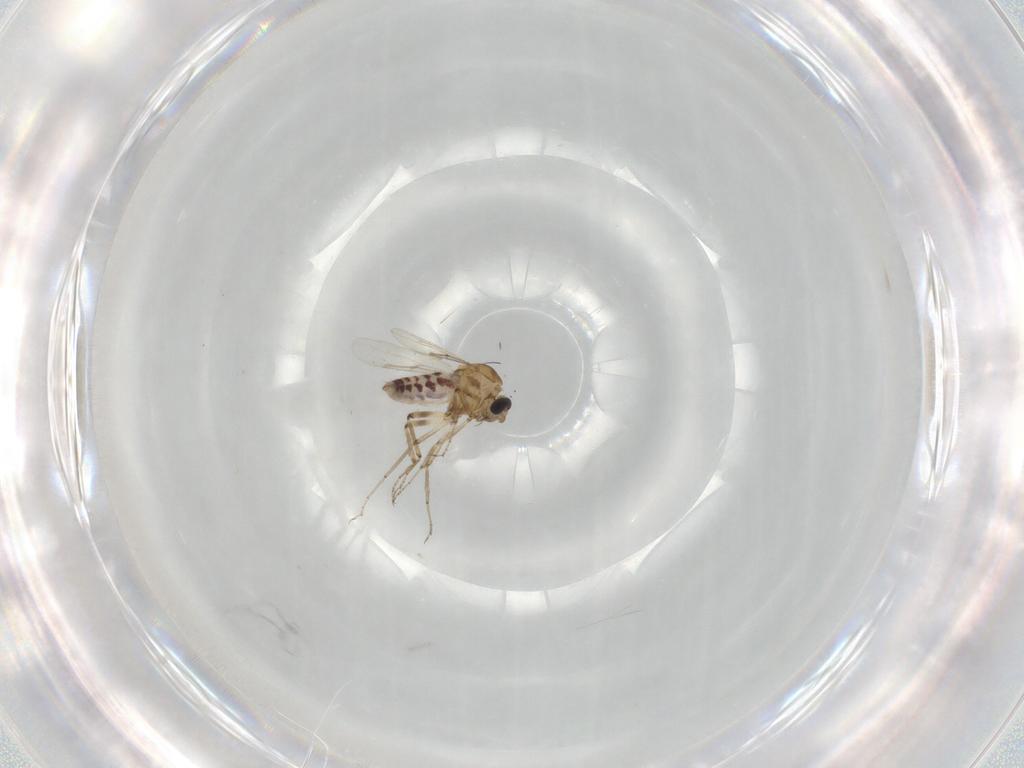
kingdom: Animalia
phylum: Arthropoda
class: Insecta
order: Diptera
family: Ceratopogonidae
